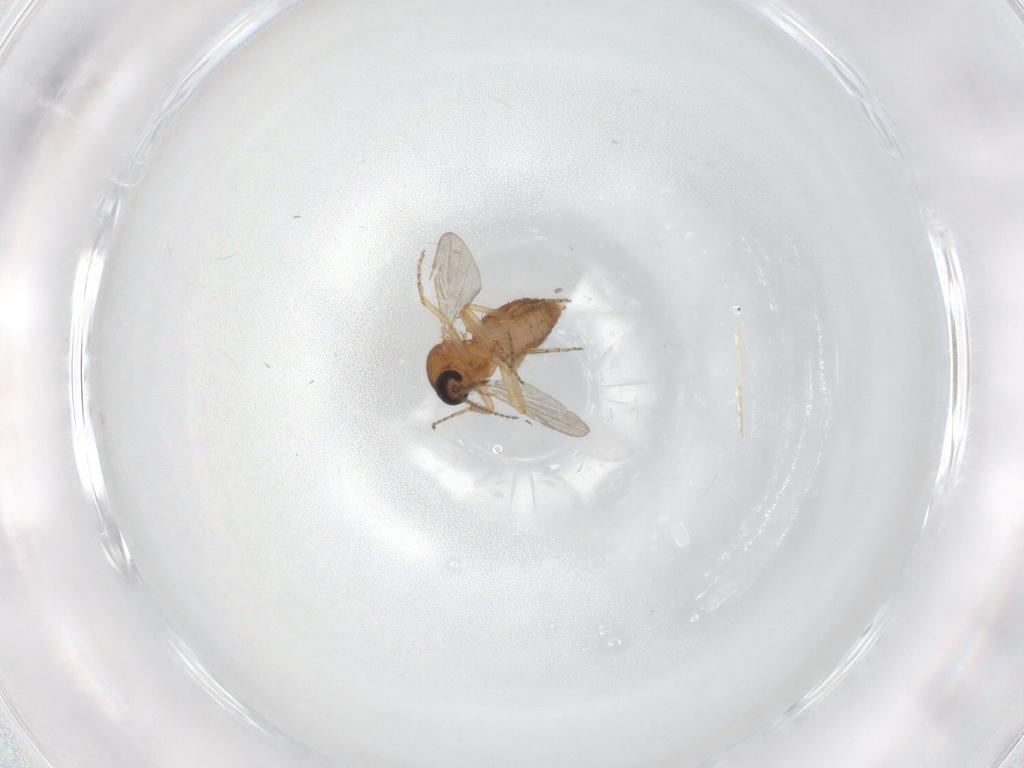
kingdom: Animalia
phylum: Arthropoda
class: Insecta
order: Diptera
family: Ceratopogonidae
